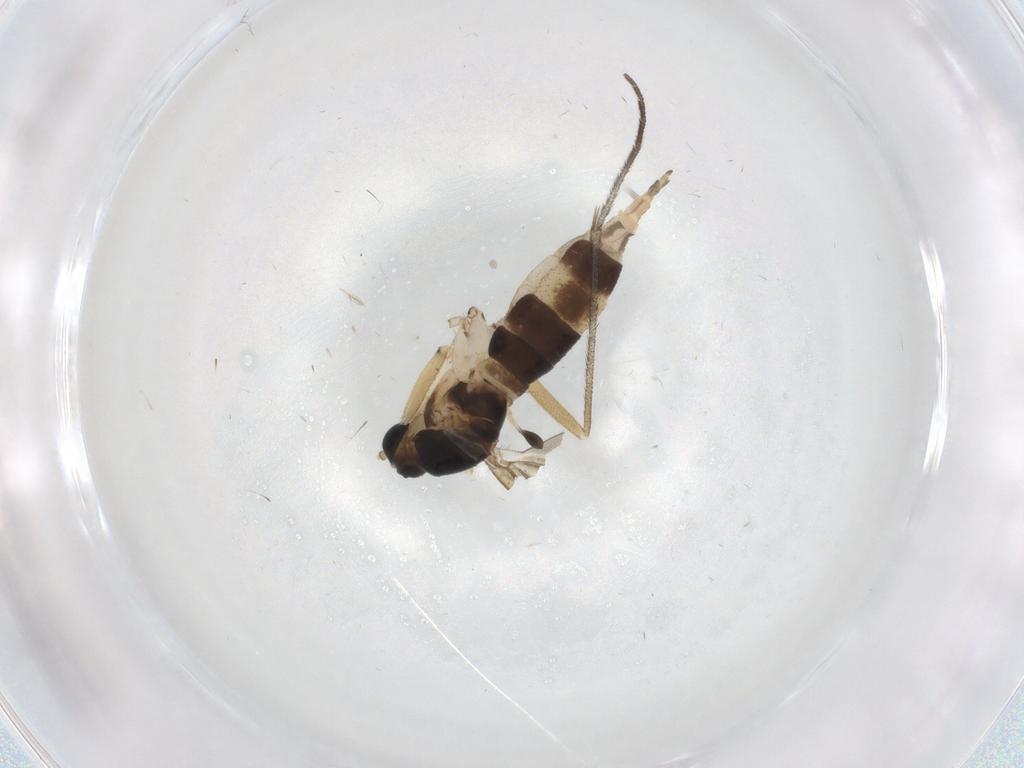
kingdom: Animalia
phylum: Arthropoda
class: Insecta
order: Diptera
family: Sciaridae
